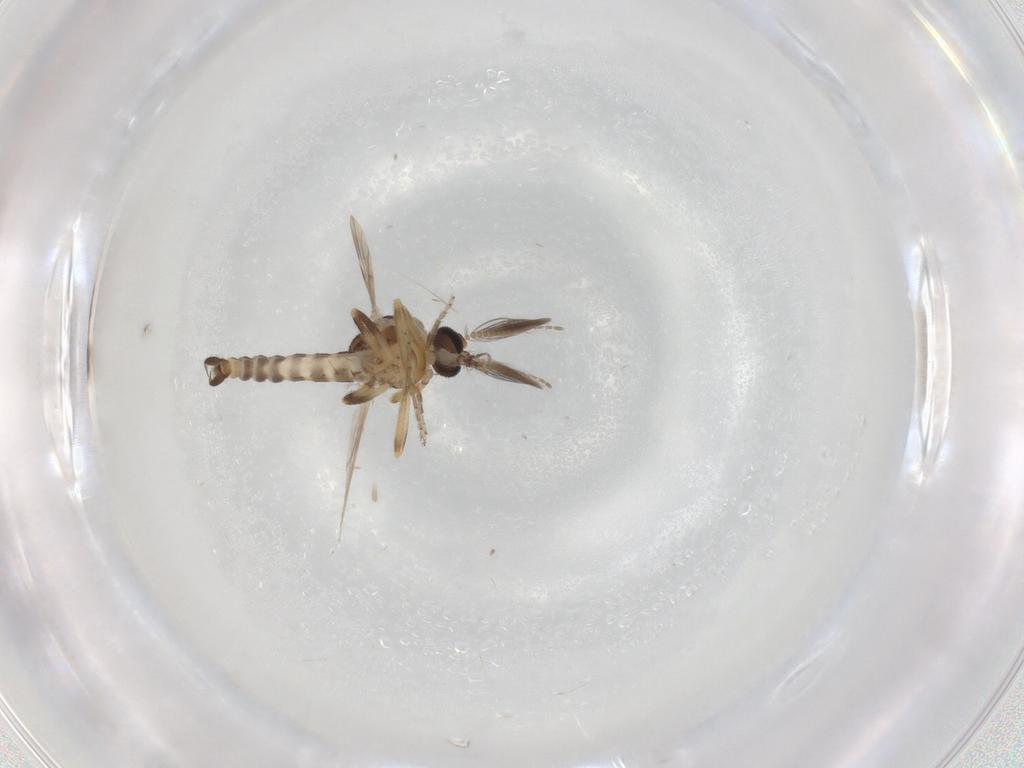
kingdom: Animalia
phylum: Arthropoda
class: Insecta
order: Diptera
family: Ceratopogonidae
